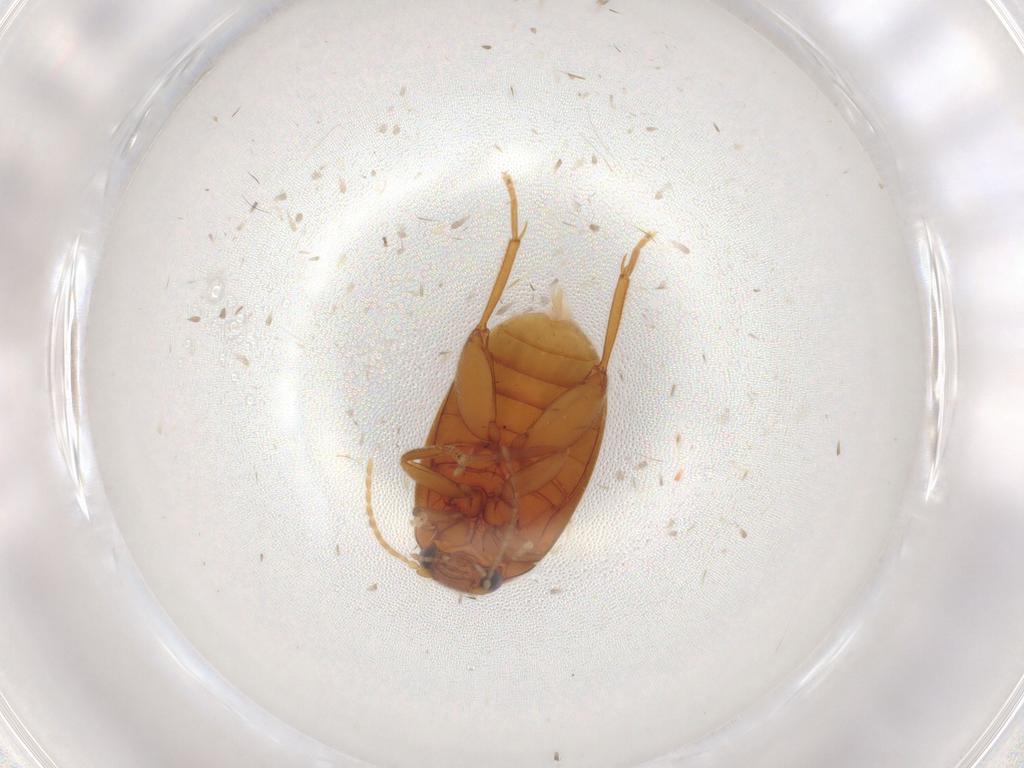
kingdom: Animalia
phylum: Arthropoda
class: Insecta
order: Coleoptera
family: Scirtidae
